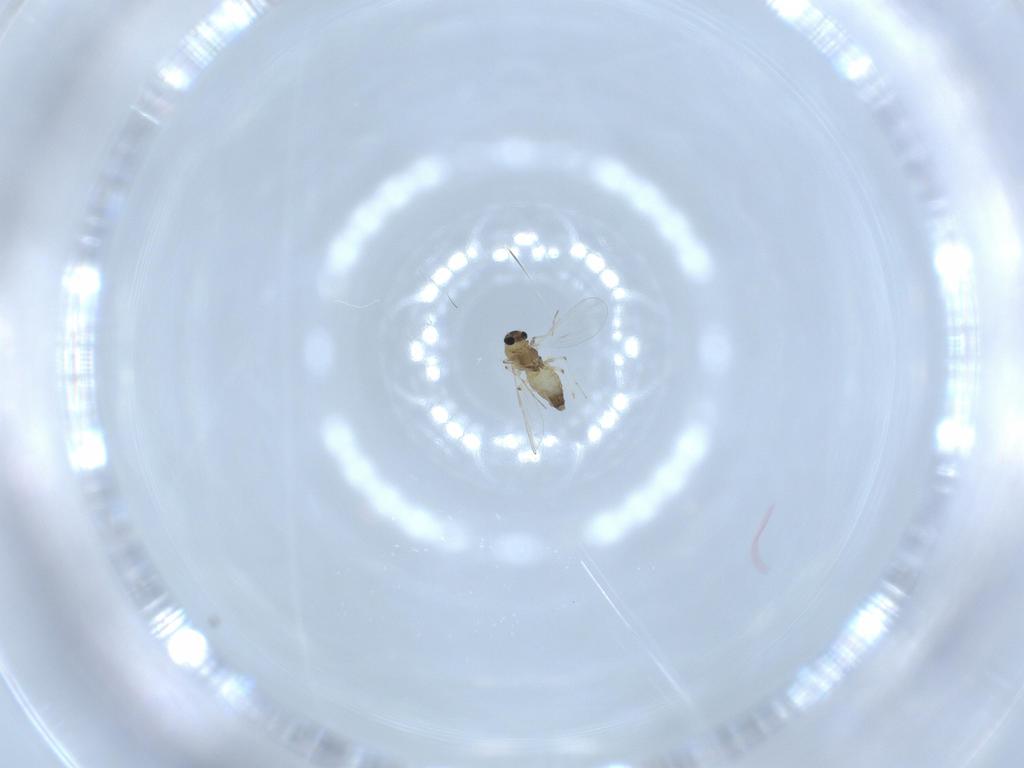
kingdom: Animalia
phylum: Arthropoda
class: Insecta
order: Diptera
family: Chironomidae
